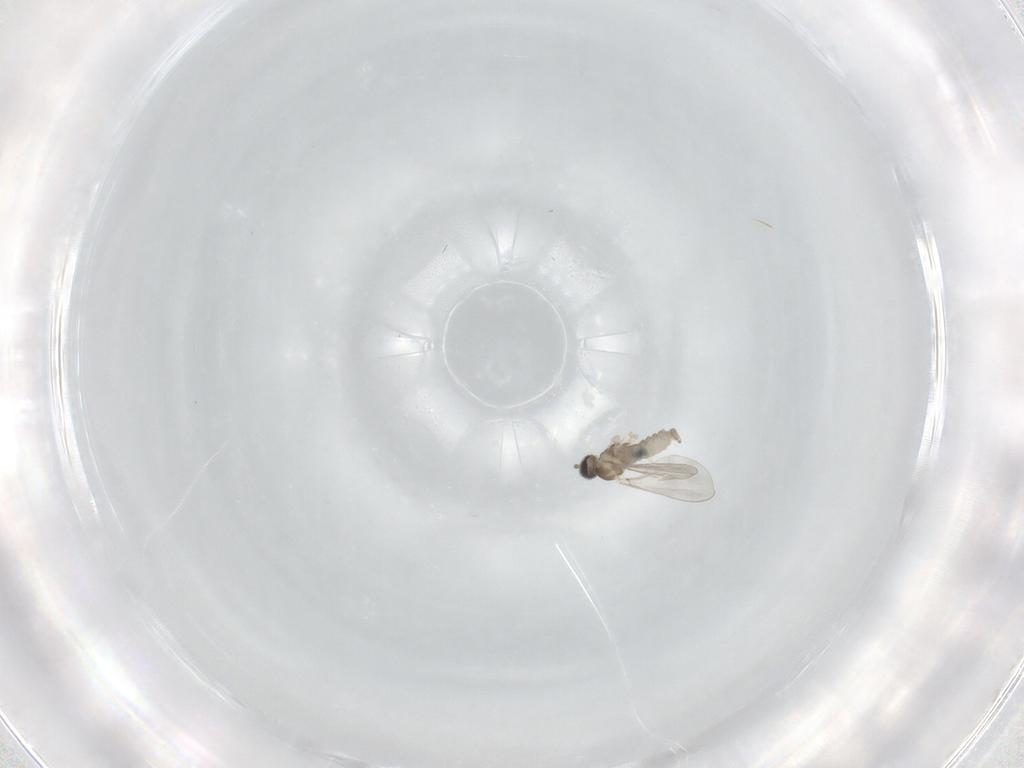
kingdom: Animalia
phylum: Arthropoda
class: Insecta
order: Diptera
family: Cecidomyiidae
